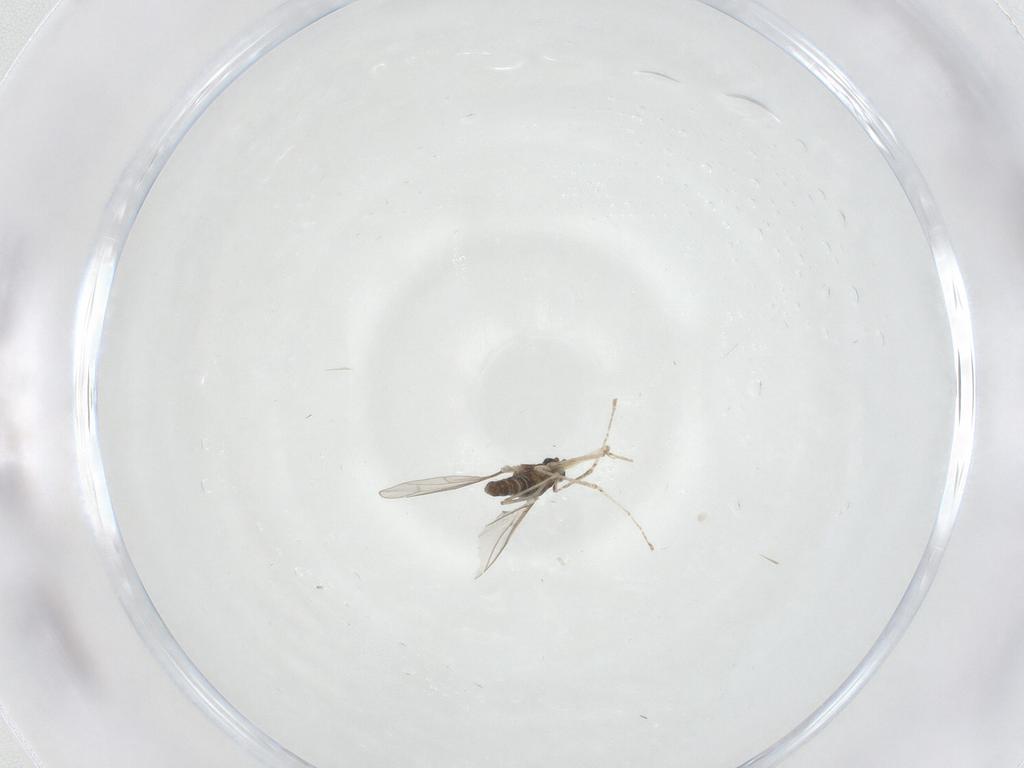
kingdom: Animalia
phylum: Arthropoda
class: Insecta
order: Diptera
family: Cecidomyiidae
